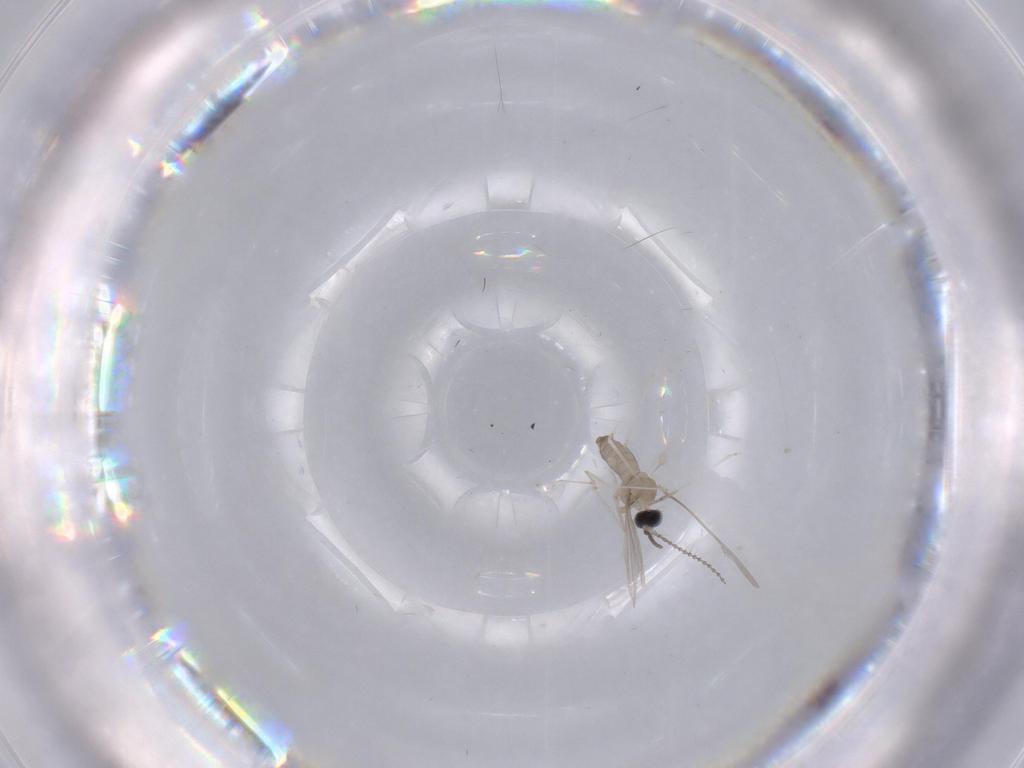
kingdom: Animalia
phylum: Arthropoda
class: Insecta
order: Diptera
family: Cecidomyiidae
